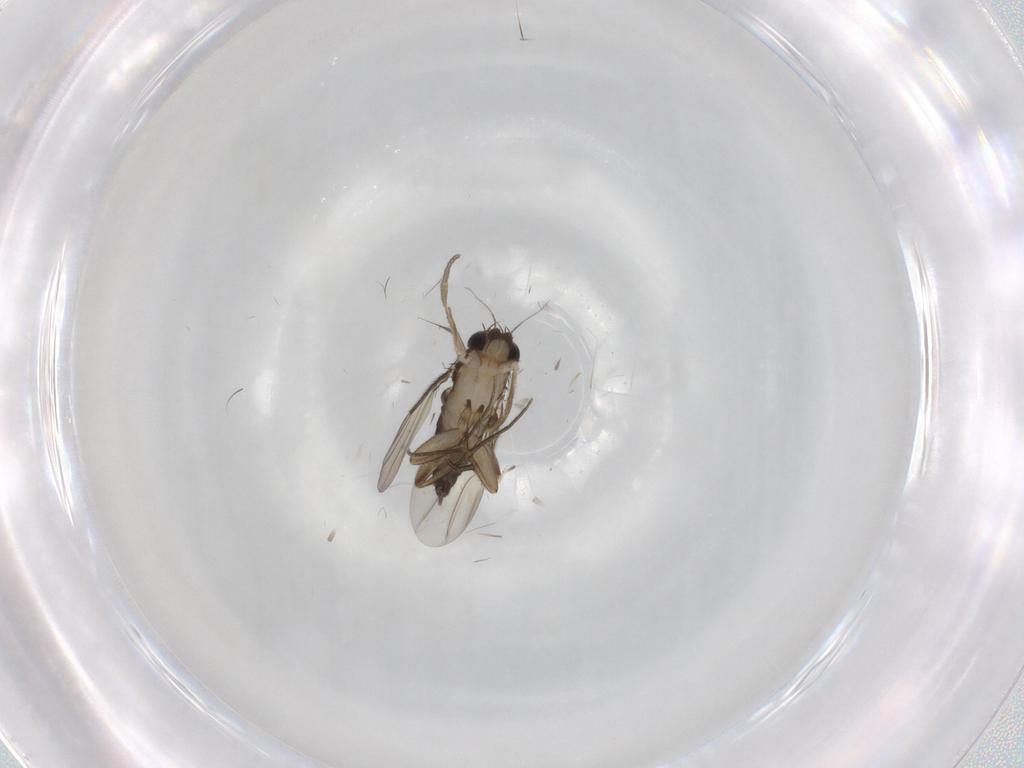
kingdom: Animalia
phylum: Arthropoda
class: Insecta
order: Diptera
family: Phoridae
